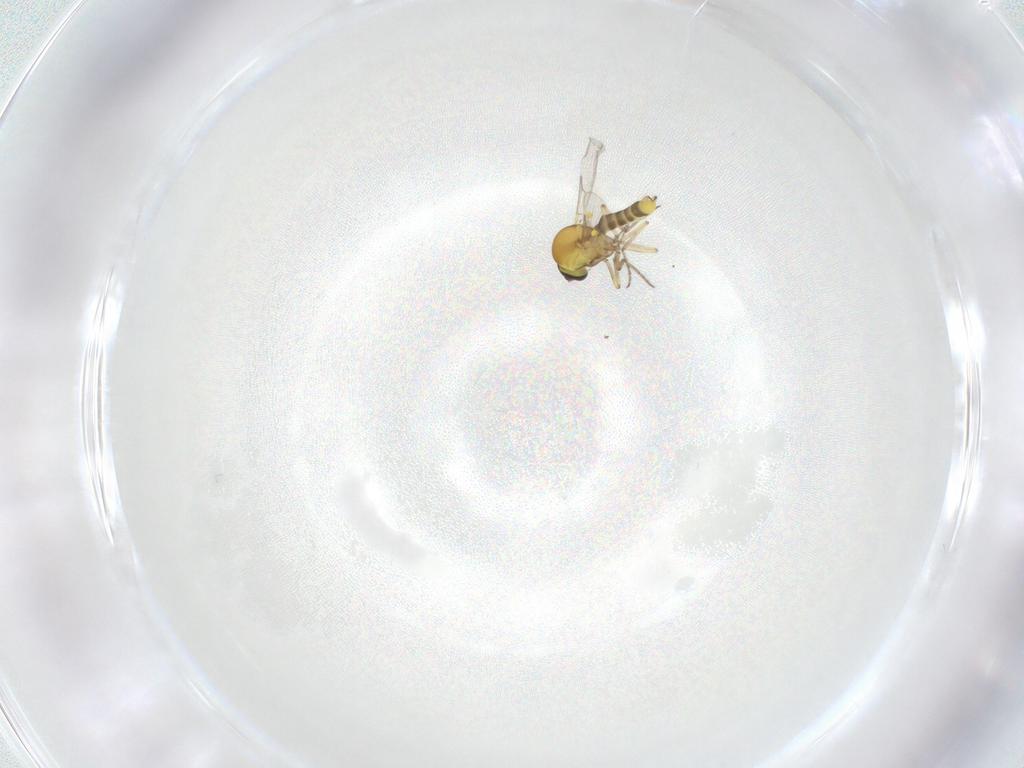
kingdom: Animalia
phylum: Arthropoda
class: Insecta
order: Diptera
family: Ceratopogonidae
